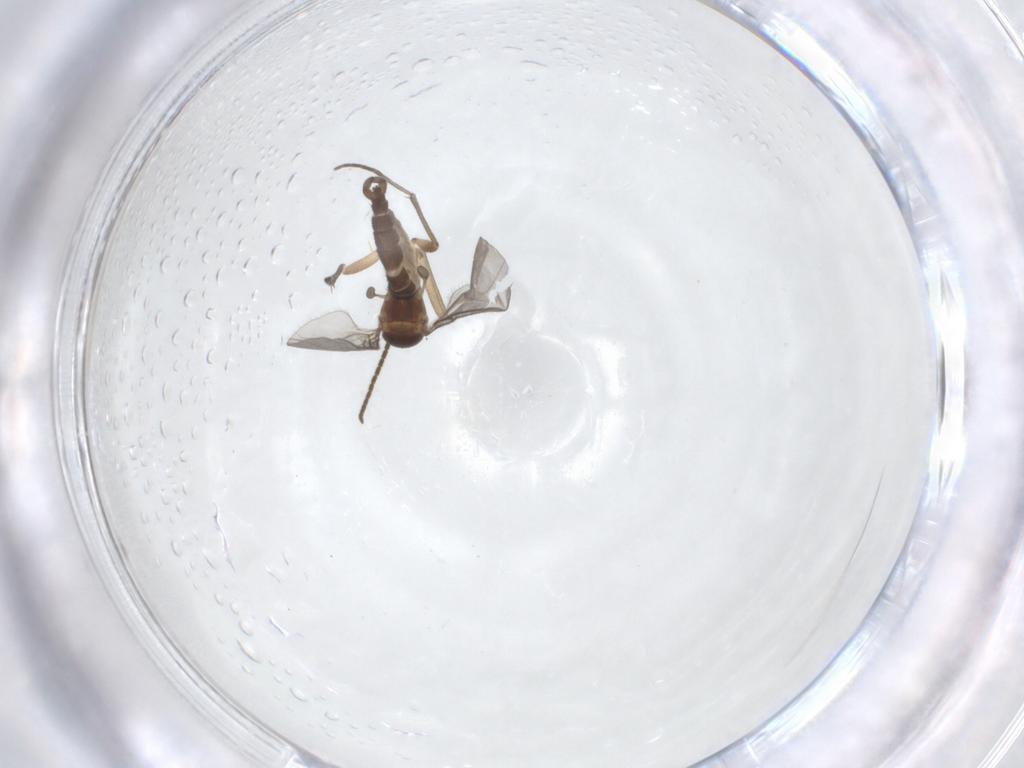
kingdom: Animalia
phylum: Arthropoda
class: Insecta
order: Diptera
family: Sciaridae
